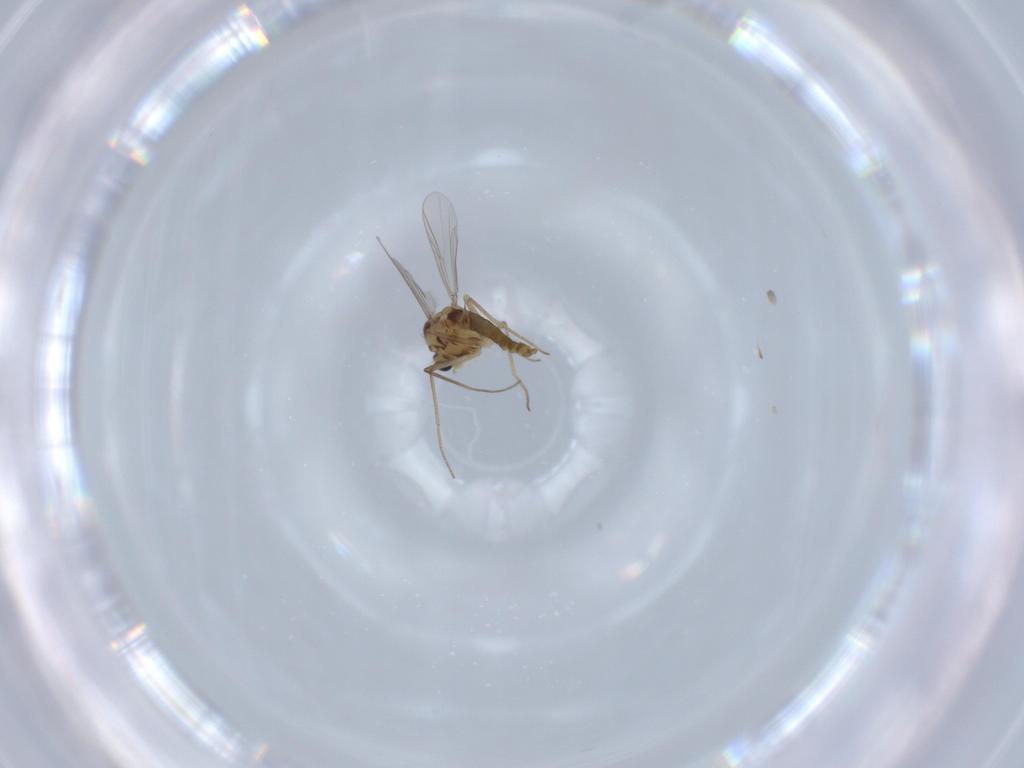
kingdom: Animalia
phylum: Arthropoda
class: Insecta
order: Diptera
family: Chironomidae
